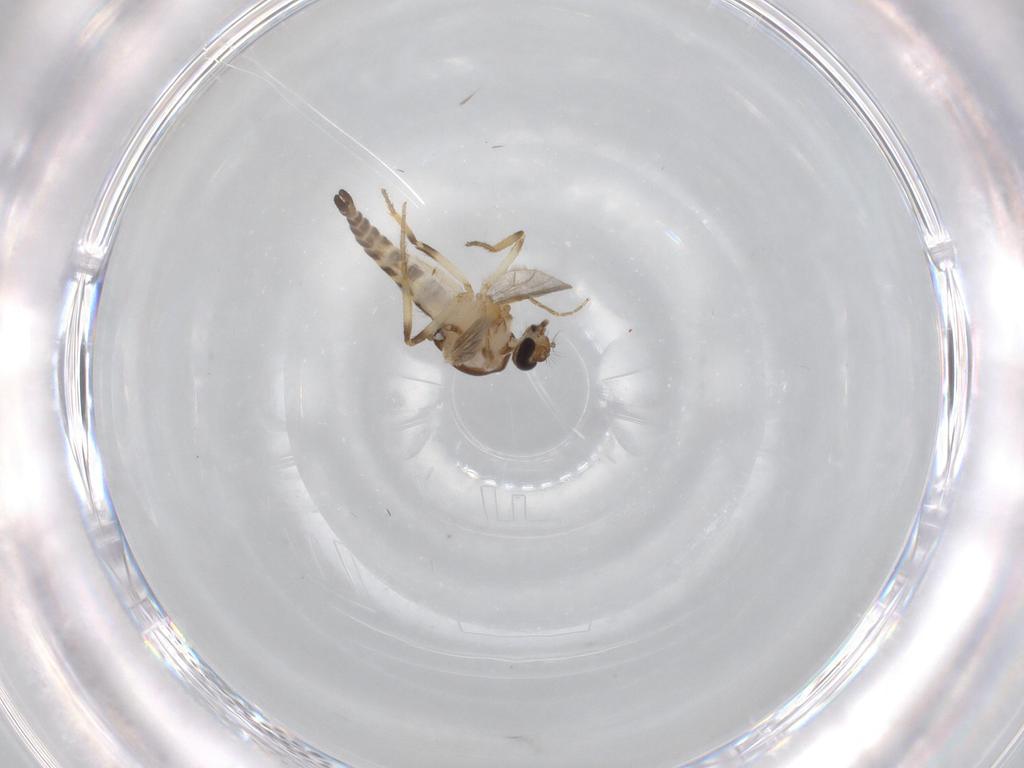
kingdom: Animalia
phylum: Arthropoda
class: Insecta
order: Diptera
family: Ceratopogonidae
